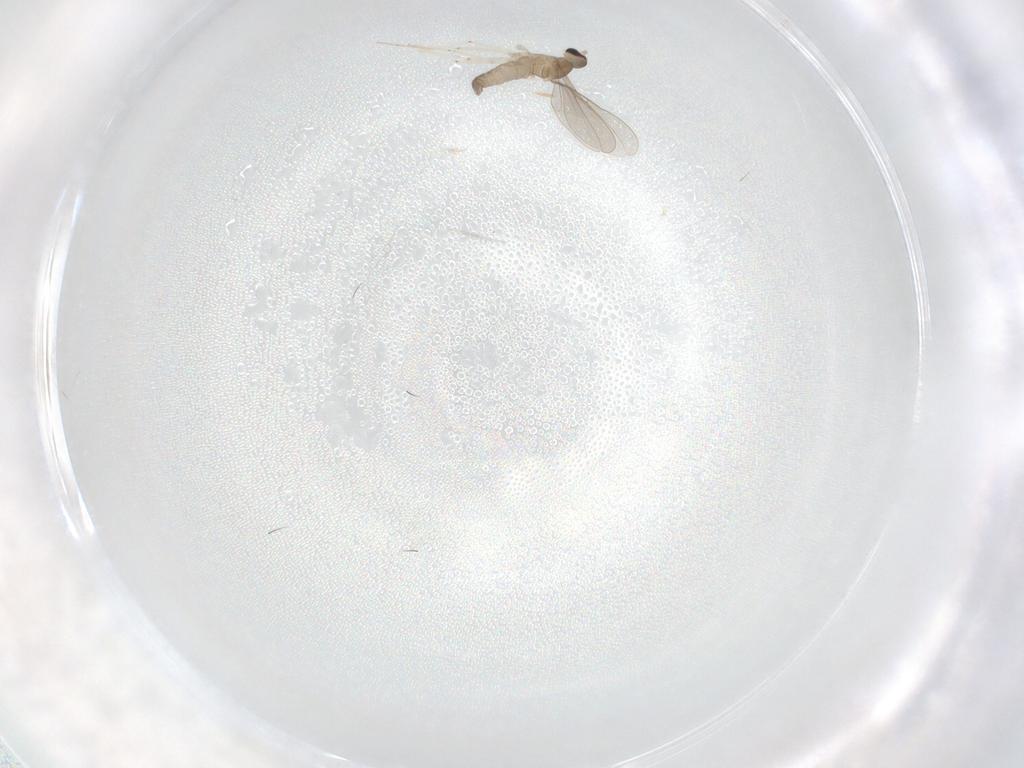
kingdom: Animalia
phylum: Arthropoda
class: Insecta
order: Diptera
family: Cecidomyiidae
